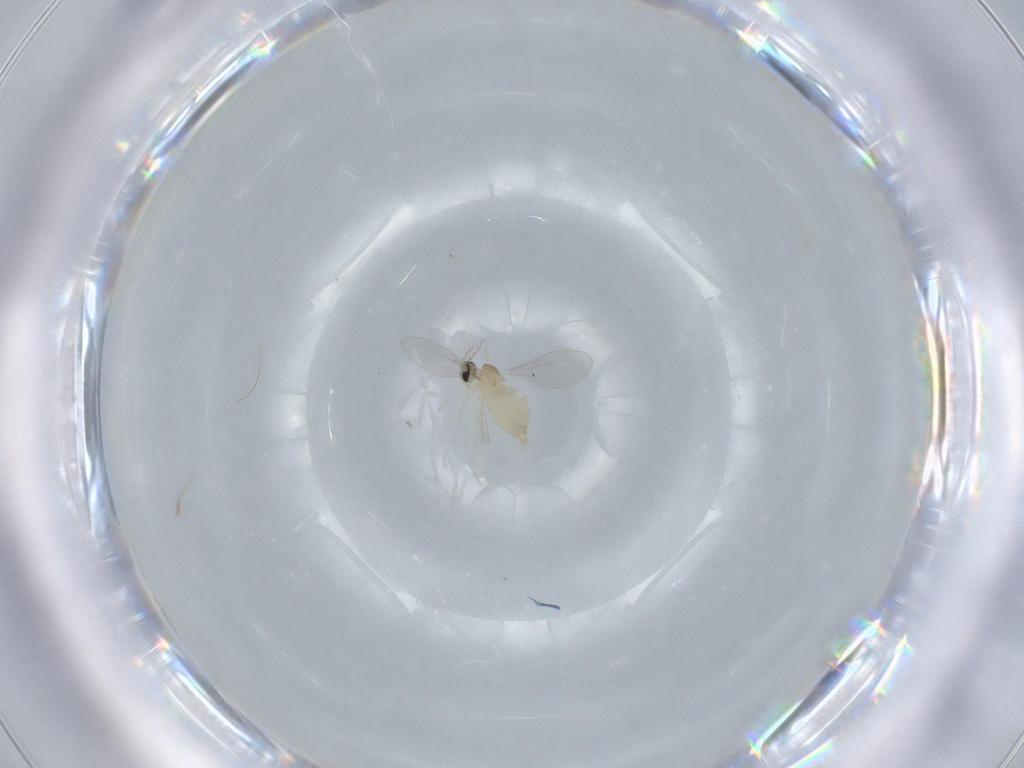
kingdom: Animalia
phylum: Arthropoda
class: Insecta
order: Diptera
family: Cecidomyiidae
